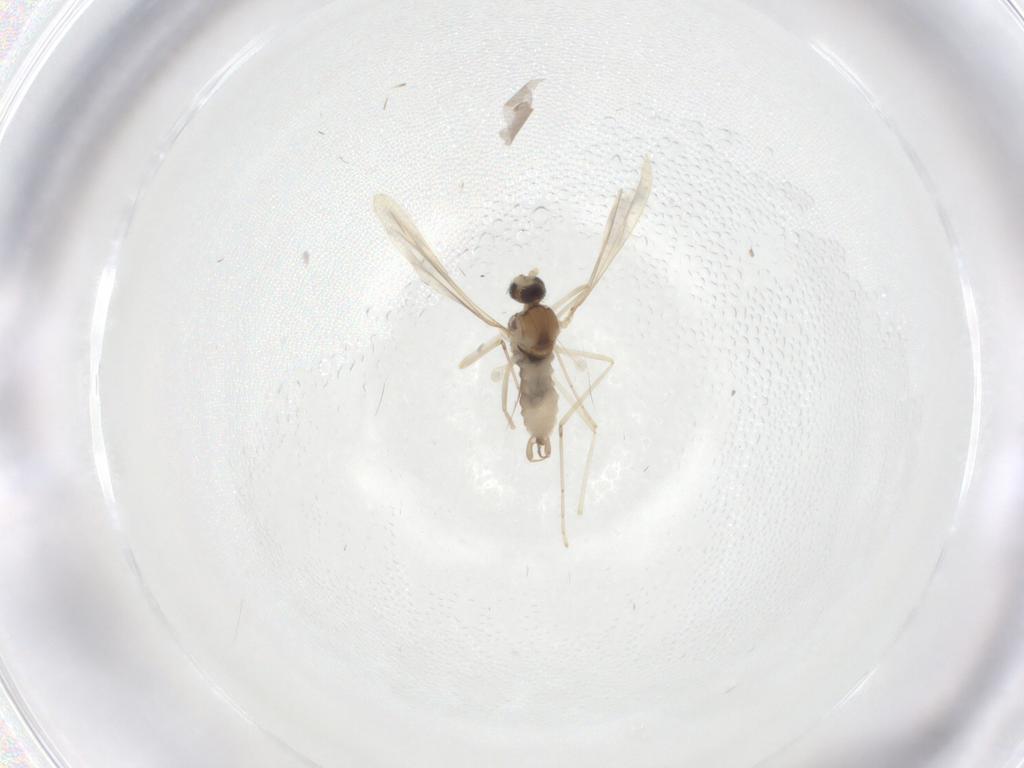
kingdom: Animalia
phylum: Arthropoda
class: Insecta
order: Diptera
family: Cecidomyiidae
